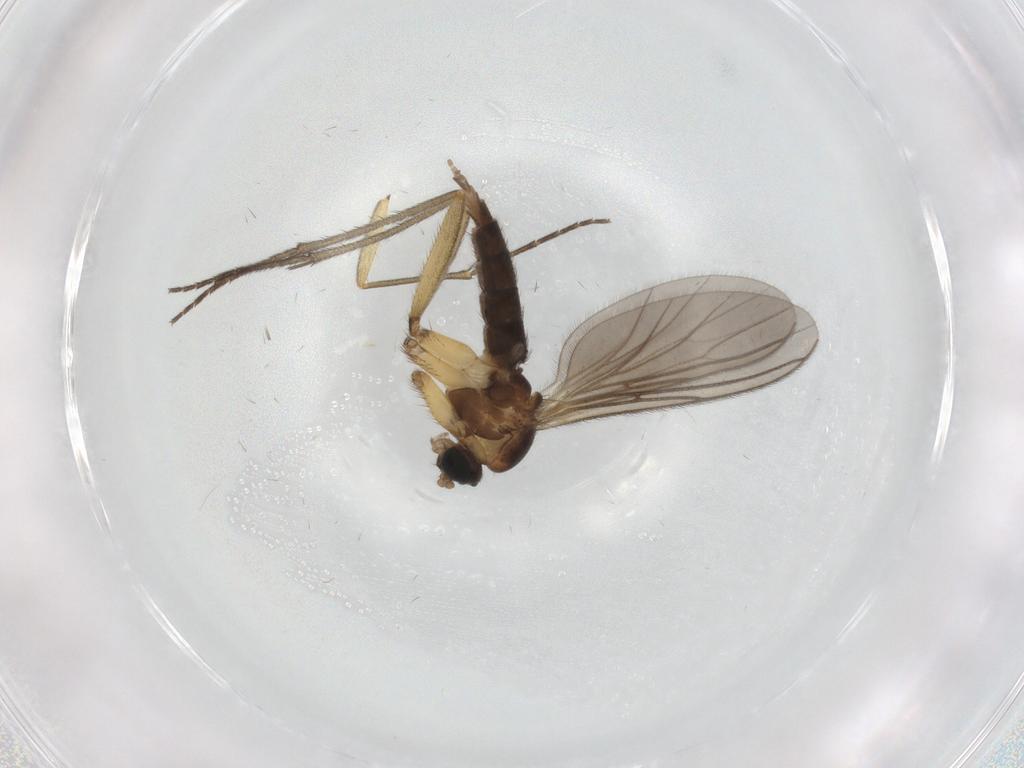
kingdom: Animalia
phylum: Arthropoda
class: Insecta
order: Diptera
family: Sciaridae
